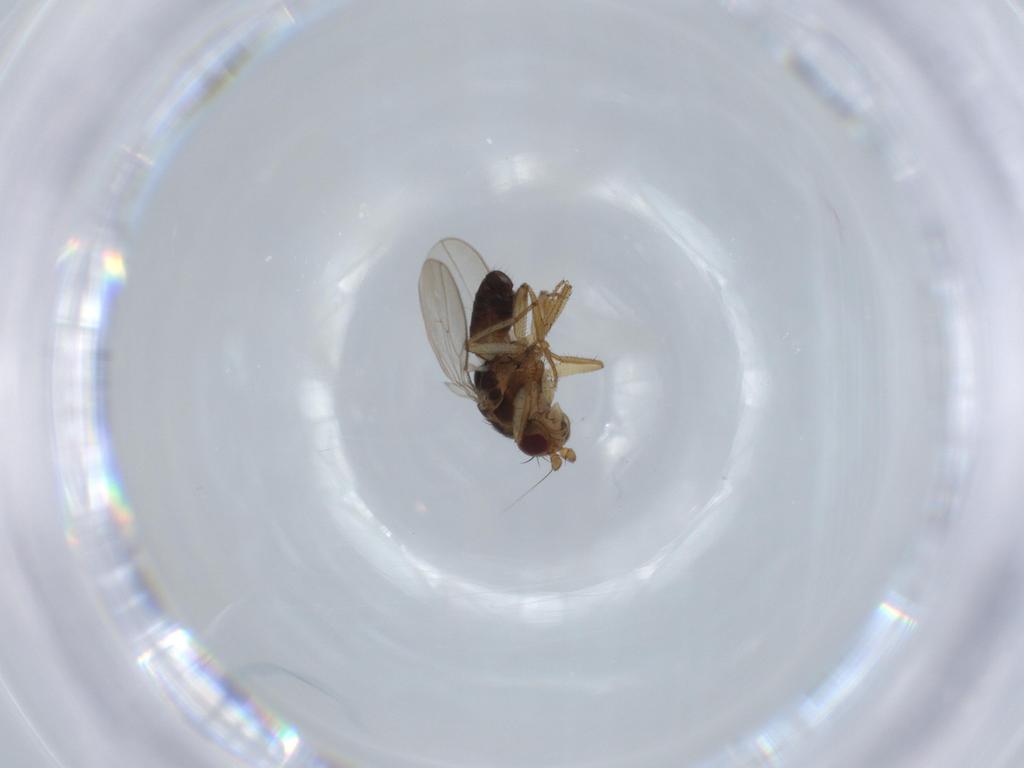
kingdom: Animalia
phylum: Arthropoda
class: Insecta
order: Diptera
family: Sphaeroceridae
